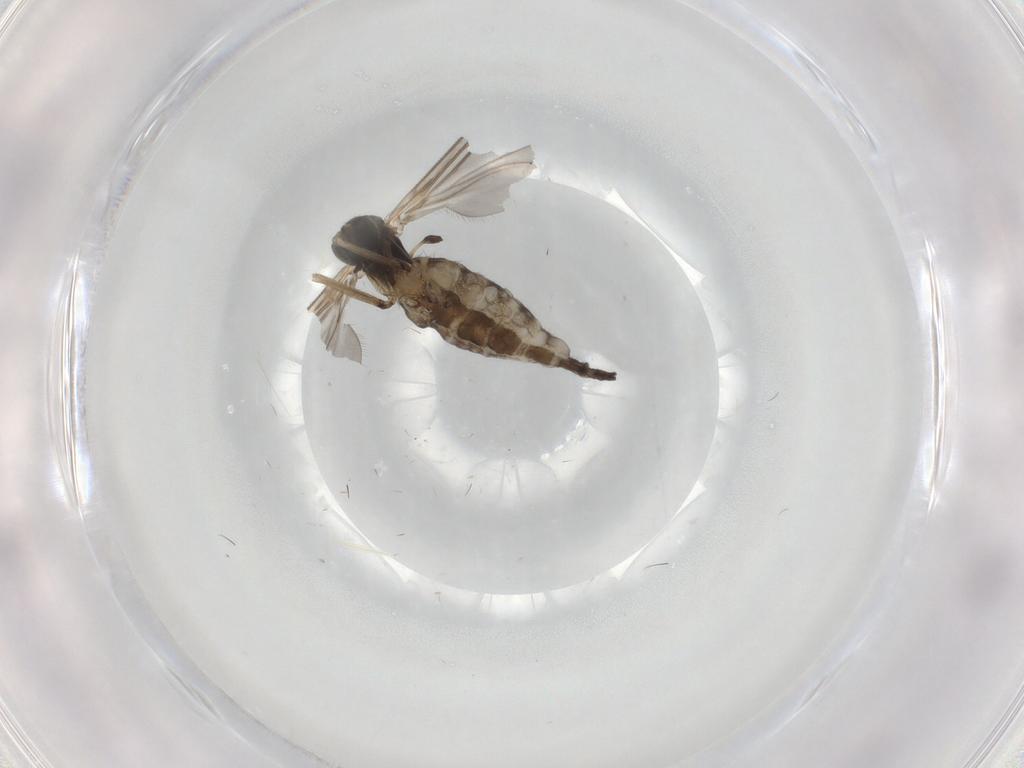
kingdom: Animalia
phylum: Arthropoda
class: Insecta
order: Diptera
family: Sciaridae
